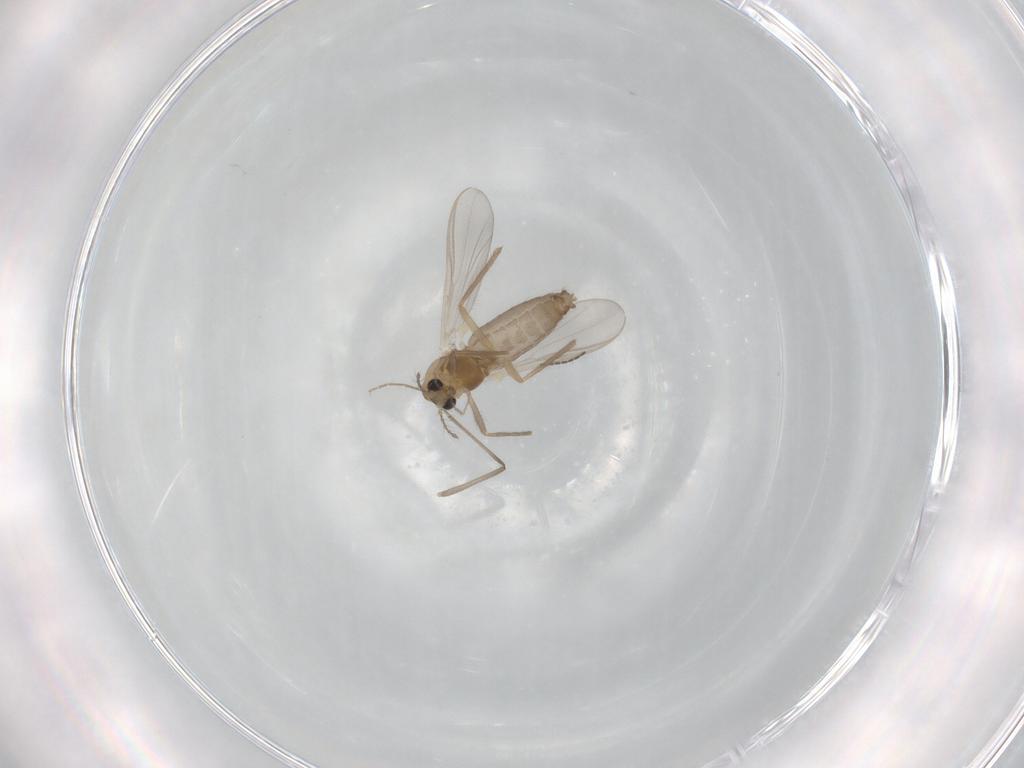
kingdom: Animalia
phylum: Arthropoda
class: Insecta
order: Diptera
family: Chironomidae
